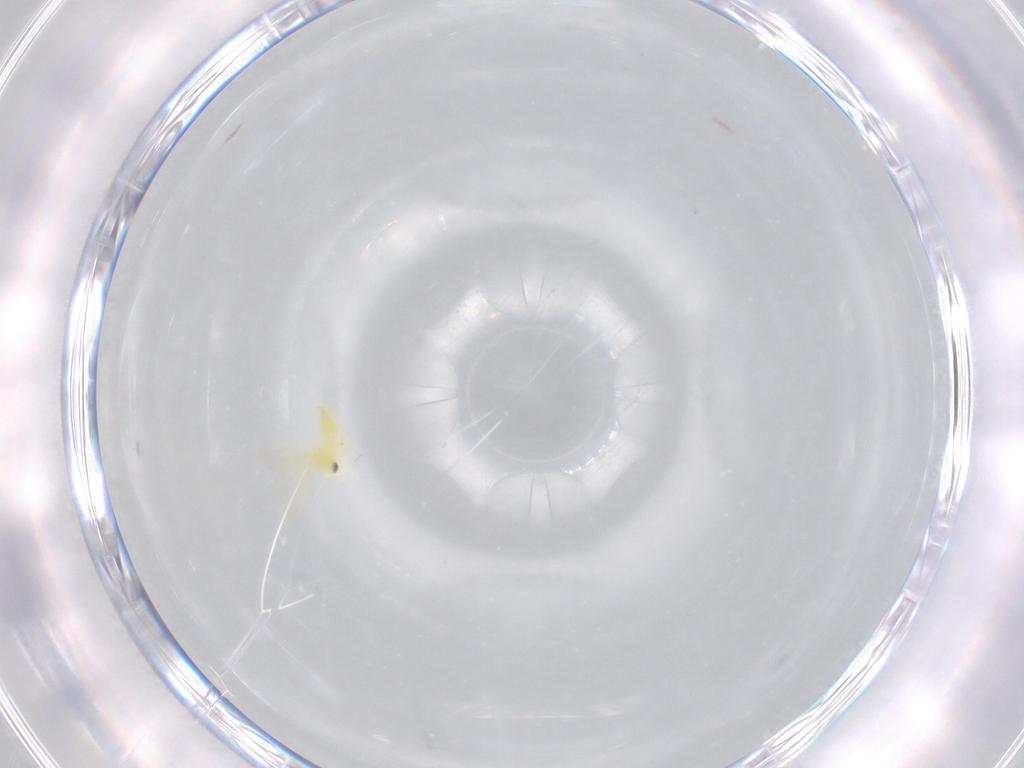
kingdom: Animalia
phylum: Arthropoda
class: Insecta
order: Hemiptera
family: Aleyrodidae
